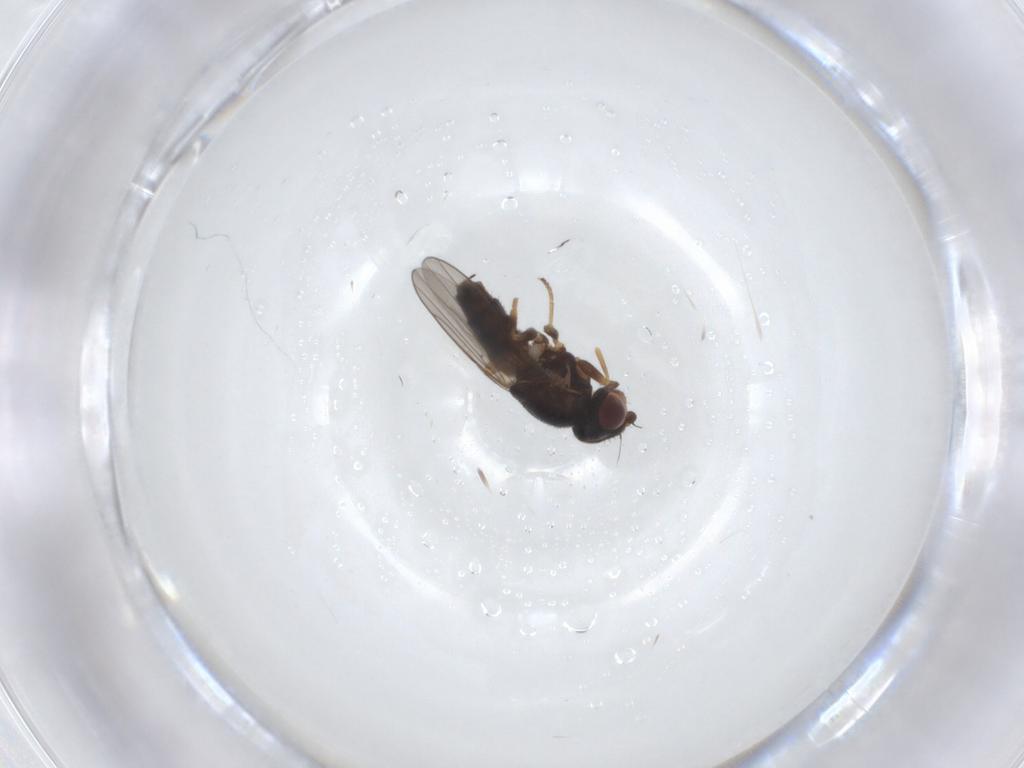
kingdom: Animalia
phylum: Arthropoda
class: Insecta
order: Diptera
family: Chloropidae
